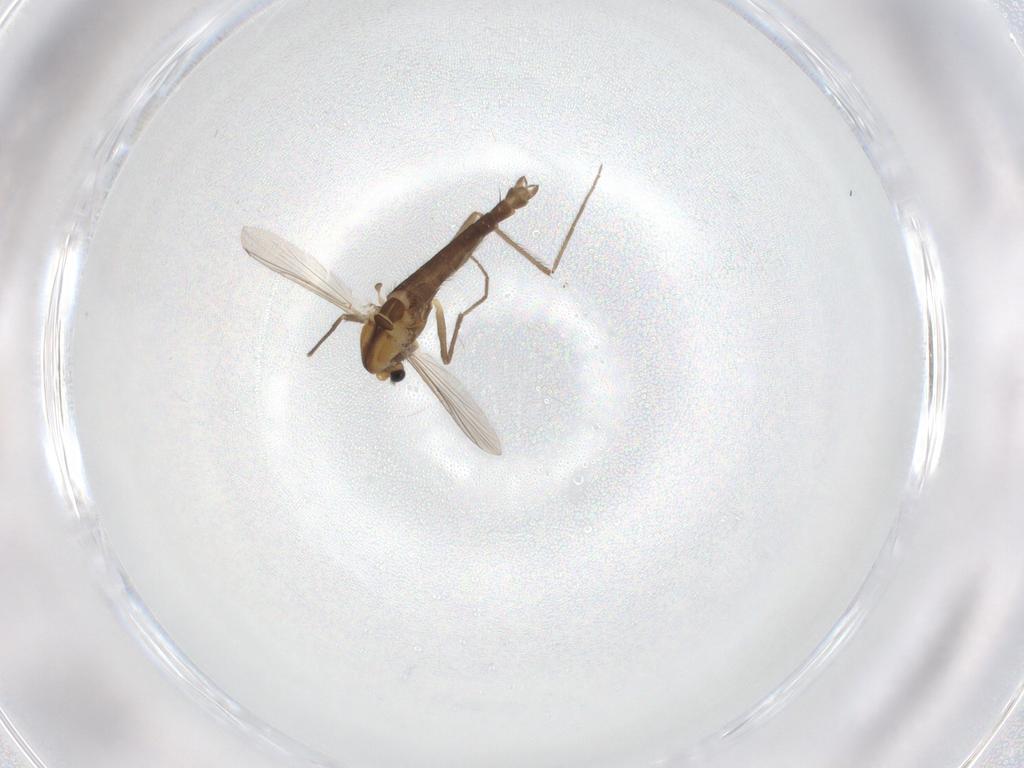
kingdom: Animalia
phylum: Arthropoda
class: Insecta
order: Diptera
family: Chironomidae
